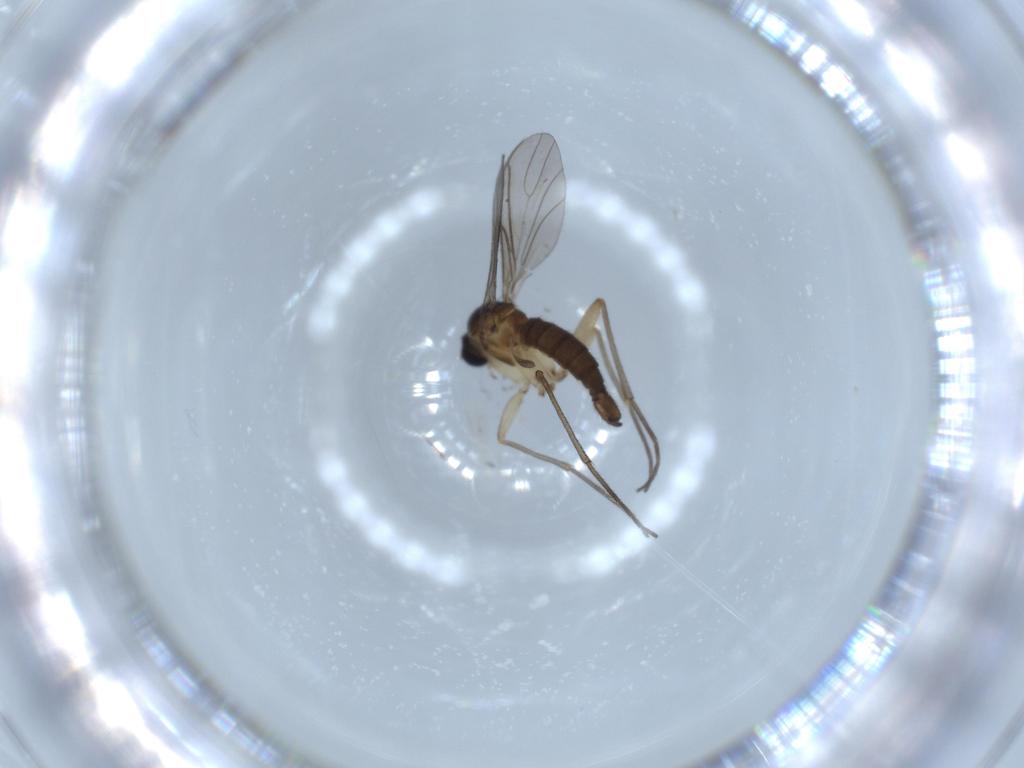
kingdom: Animalia
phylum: Arthropoda
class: Insecta
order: Diptera
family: Sciaridae
